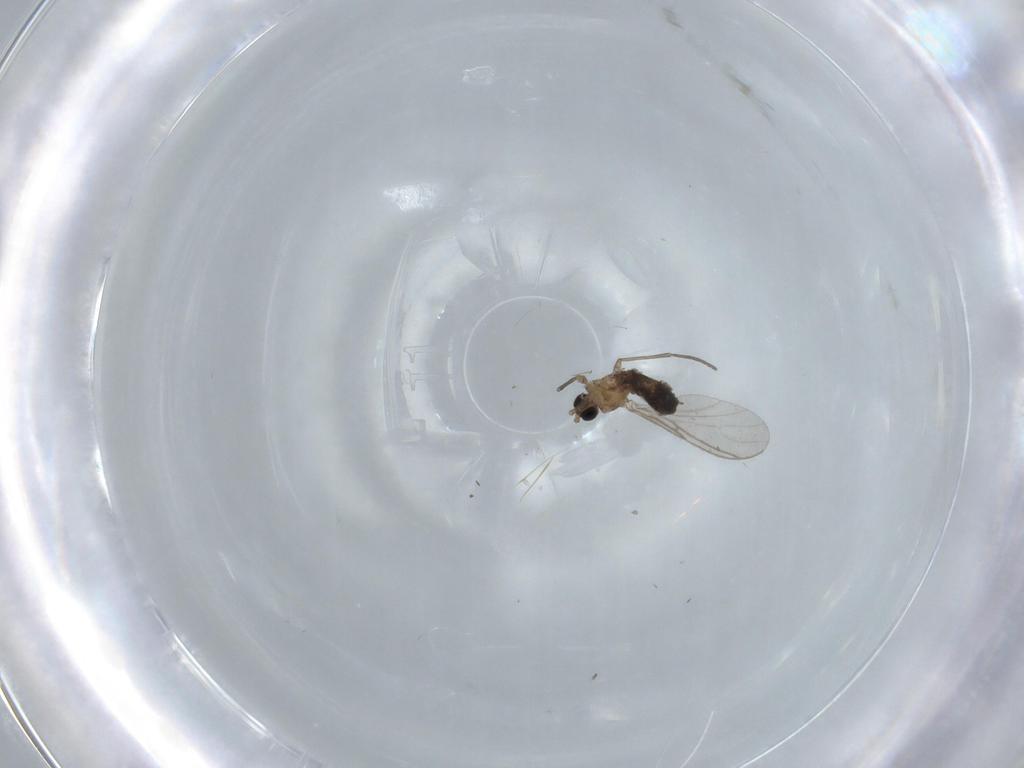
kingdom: Animalia
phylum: Arthropoda
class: Insecta
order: Diptera
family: Sciaridae
